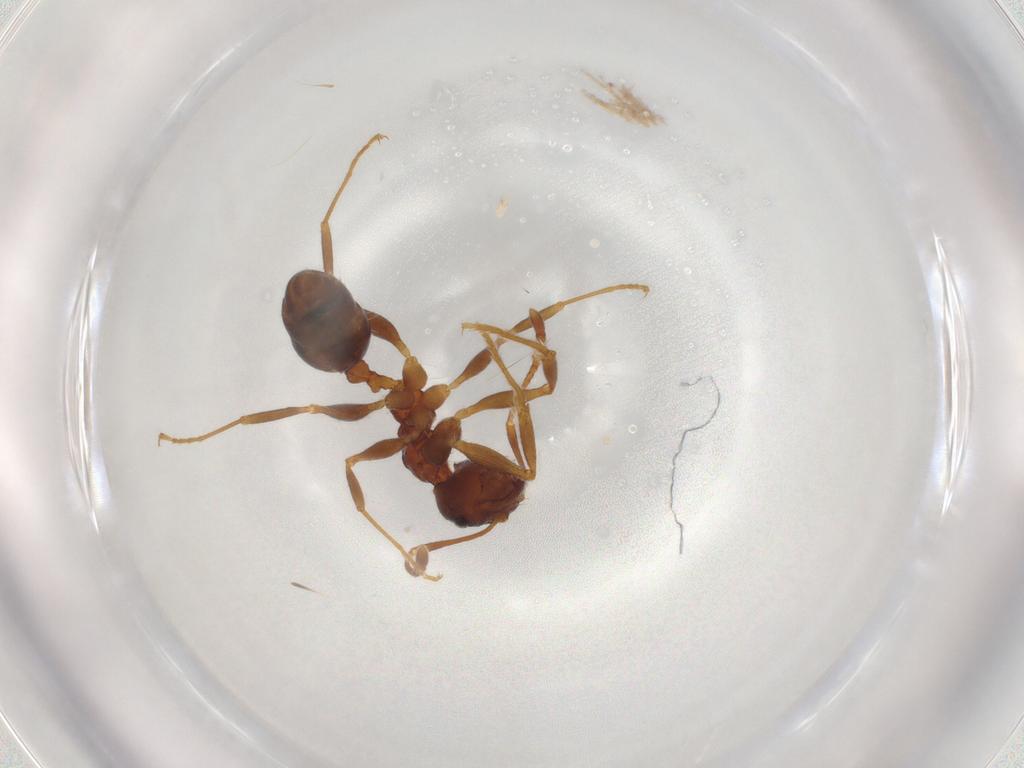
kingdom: Animalia
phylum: Arthropoda
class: Insecta
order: Hymenoptera
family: Formicidae
